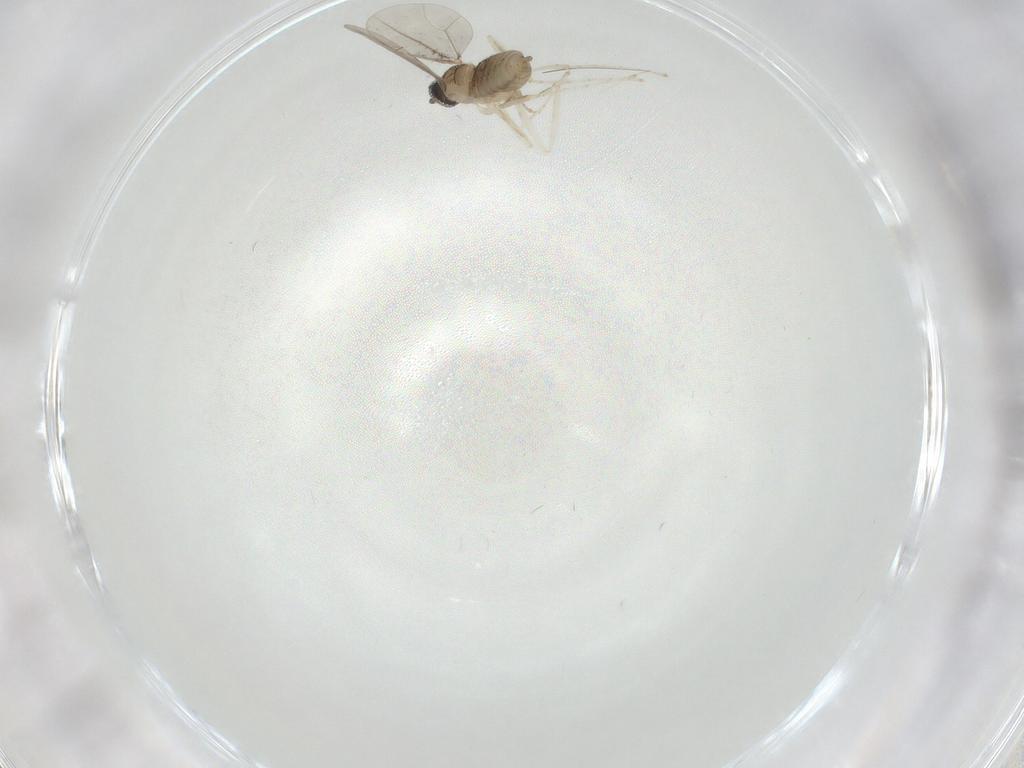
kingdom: Animalia
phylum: Arthropoda
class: Insecta
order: Diptera
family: Cecidomyiidae
